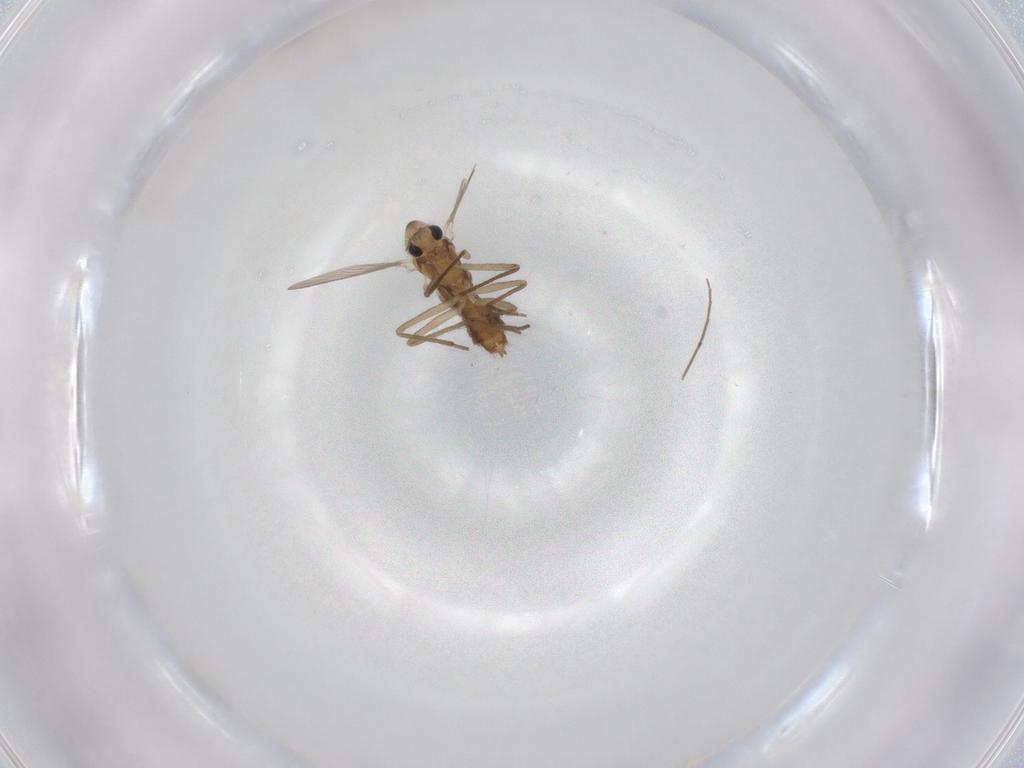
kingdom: Animalia
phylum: Arthropoda
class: Insecta
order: Diptera
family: Chironomidae
